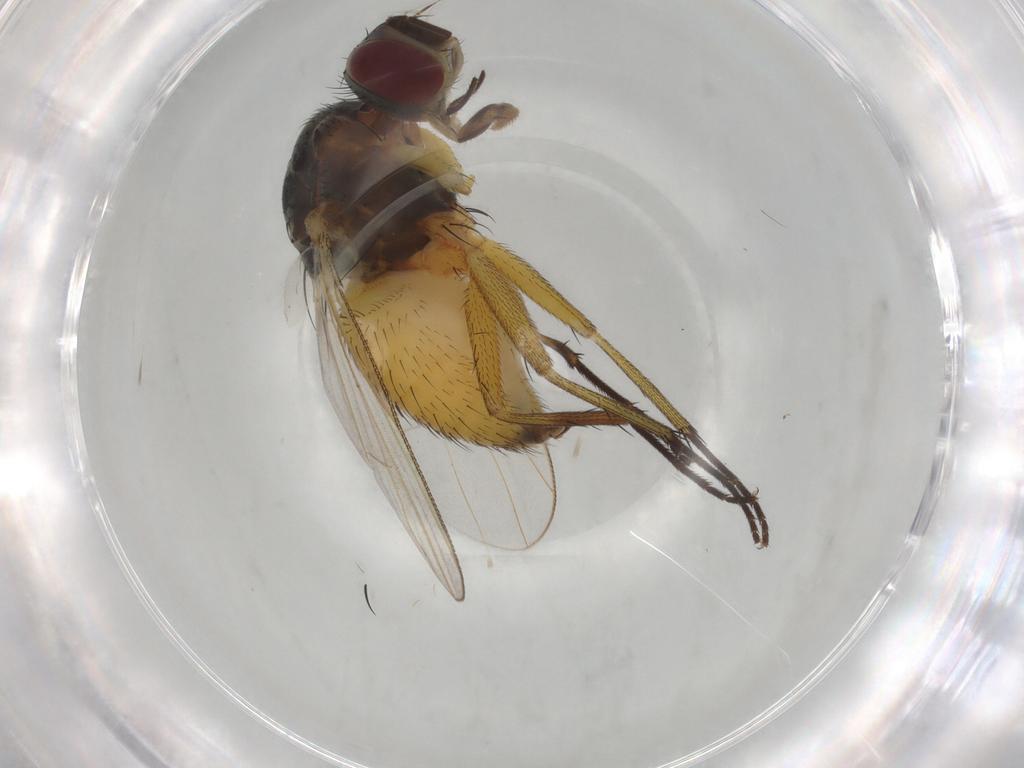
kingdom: Animalia
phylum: Arthropoda
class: Insecta
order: Diptera
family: Muscidae
